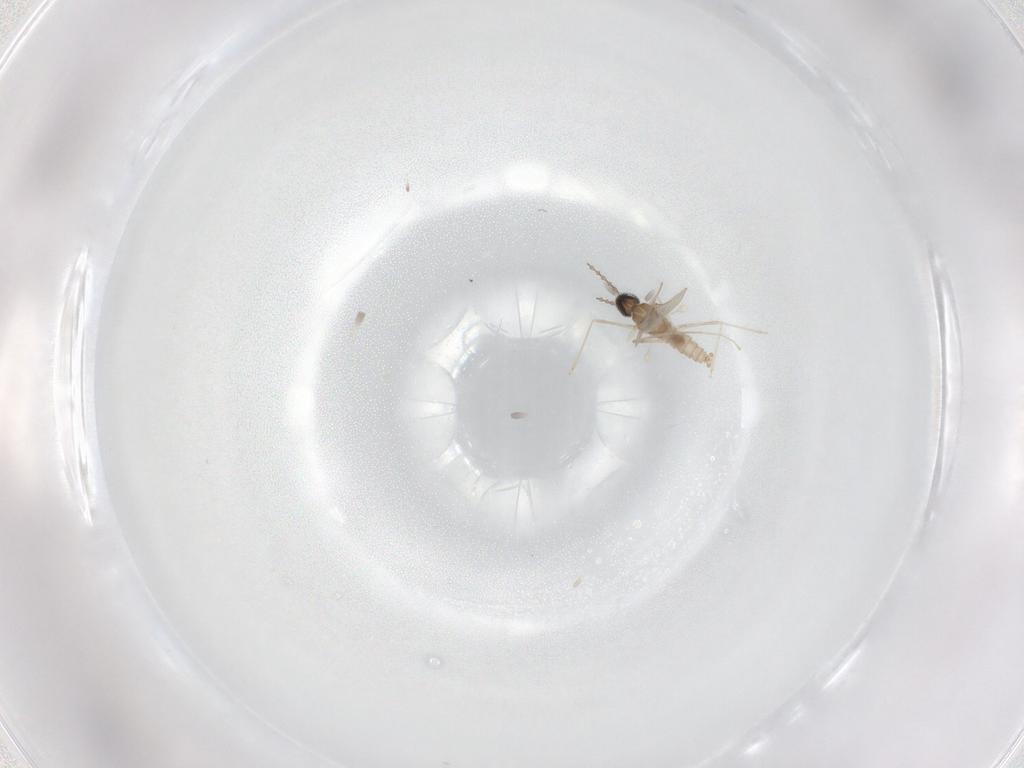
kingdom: Animalia
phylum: Arthropoda
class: Insecta
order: Diptera
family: Asilidae
